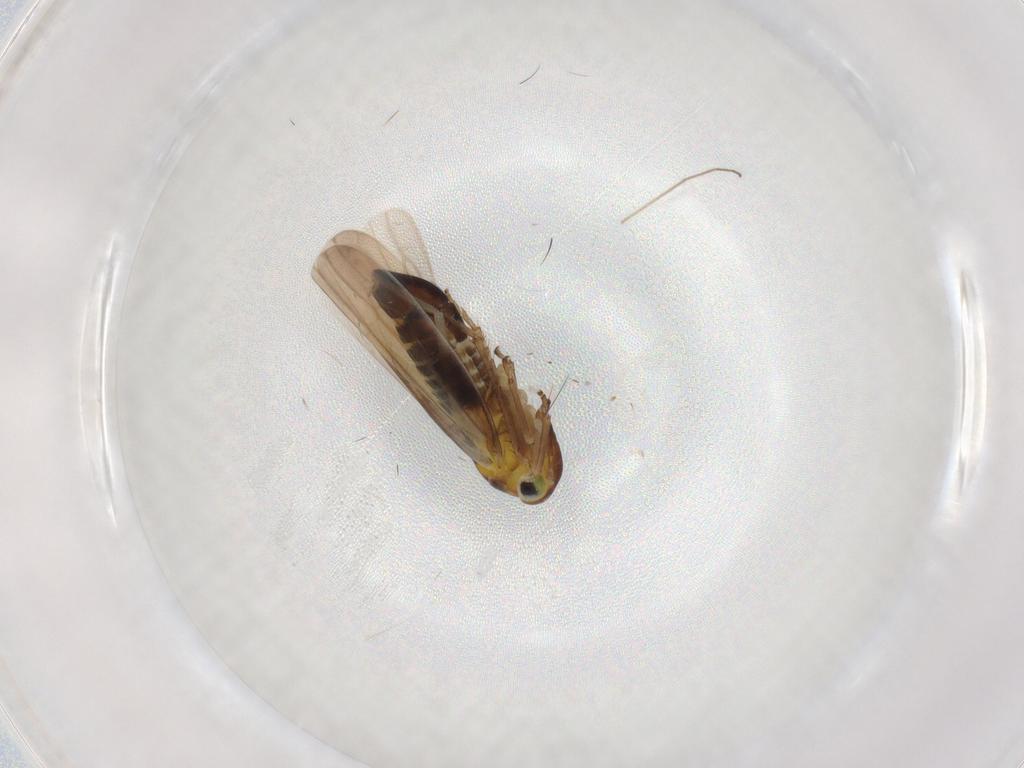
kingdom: Animalia
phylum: Arthropoda
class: Insecta
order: Hemiptera
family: Cicadellidae
